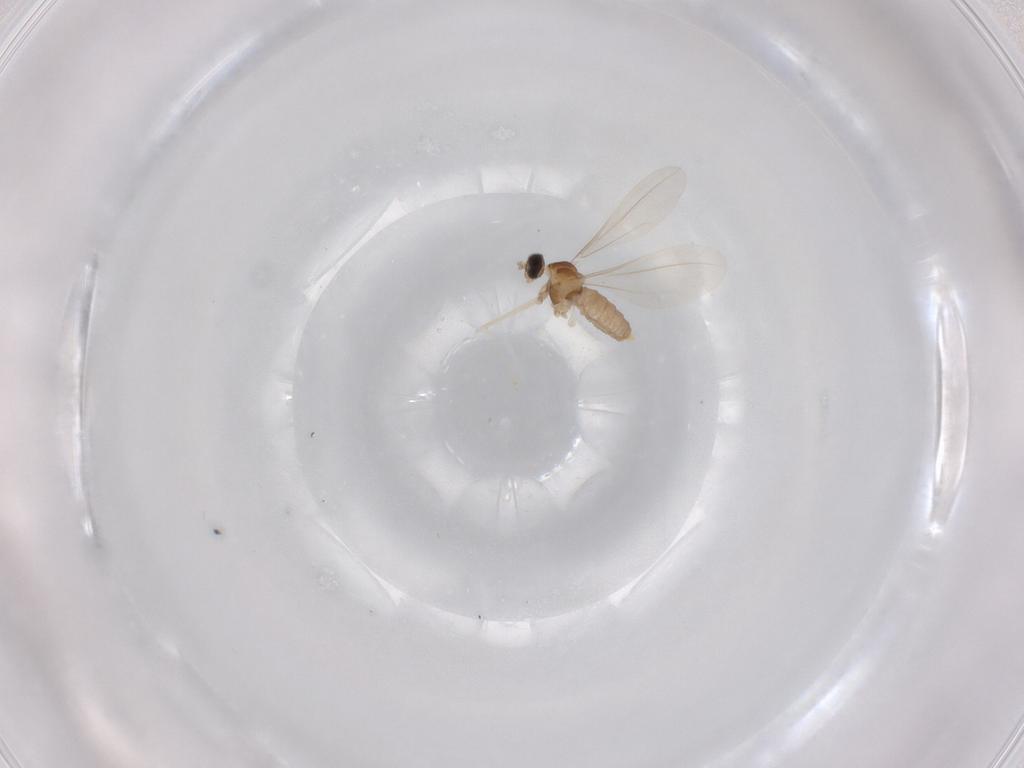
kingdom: Animalia
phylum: Arthropoda
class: Insecta
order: Diptera
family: Cecidomyiidae
